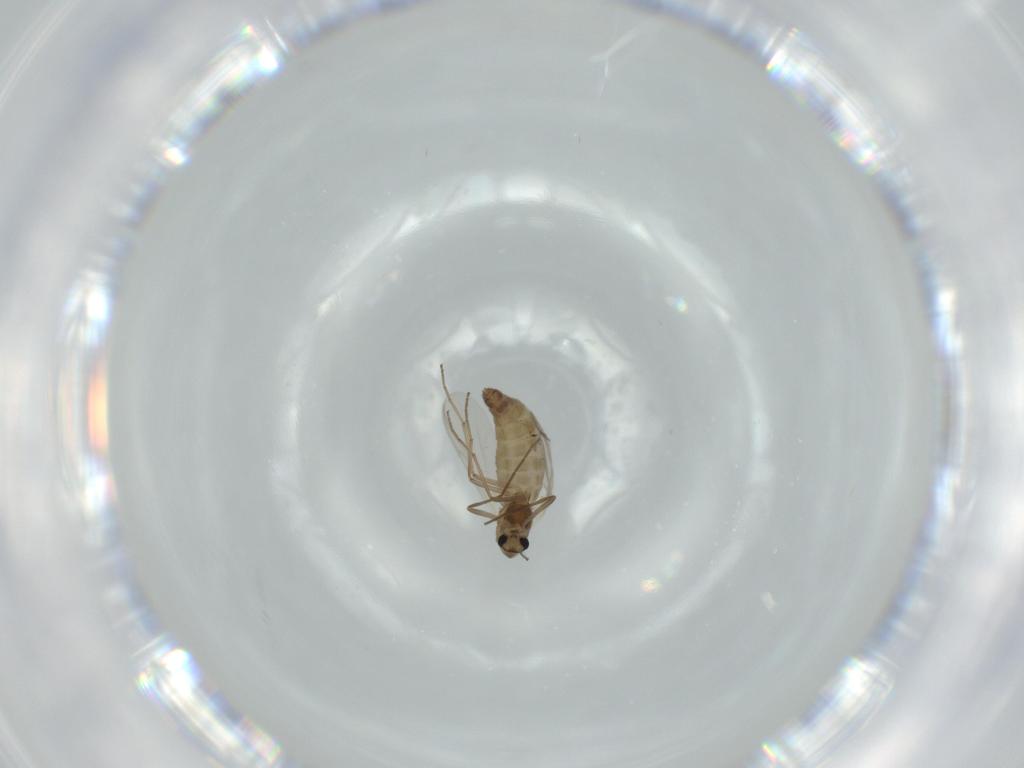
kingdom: Animalia
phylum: Arthropoda
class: Insecta
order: Diptera
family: Chironomidae
